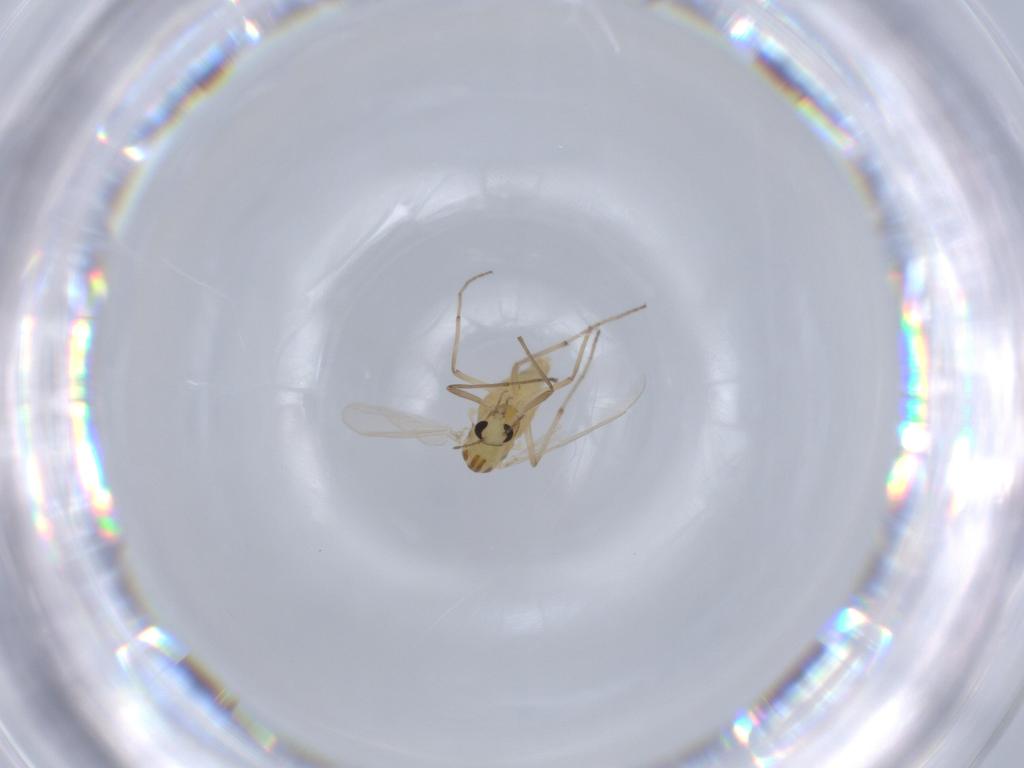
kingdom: Animalia
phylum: Arthropoda
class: Insecta
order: Diptera
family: Chironomidae
